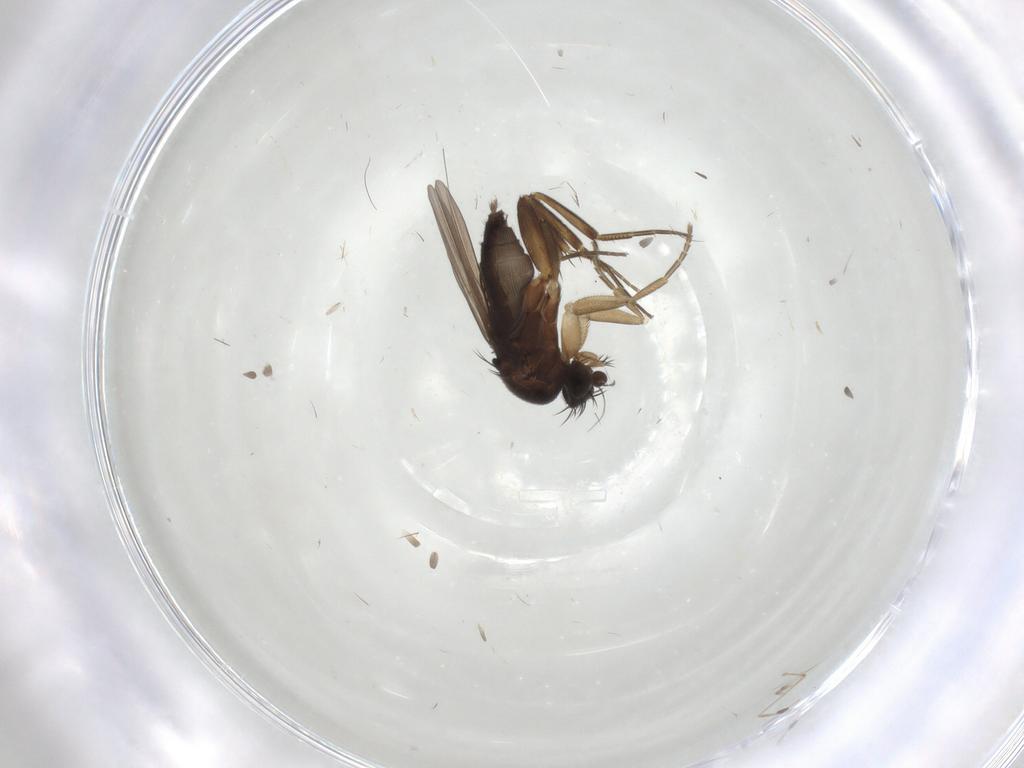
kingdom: Animalia
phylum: Arthropoda
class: Insecta
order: Diptera
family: Phoridae
